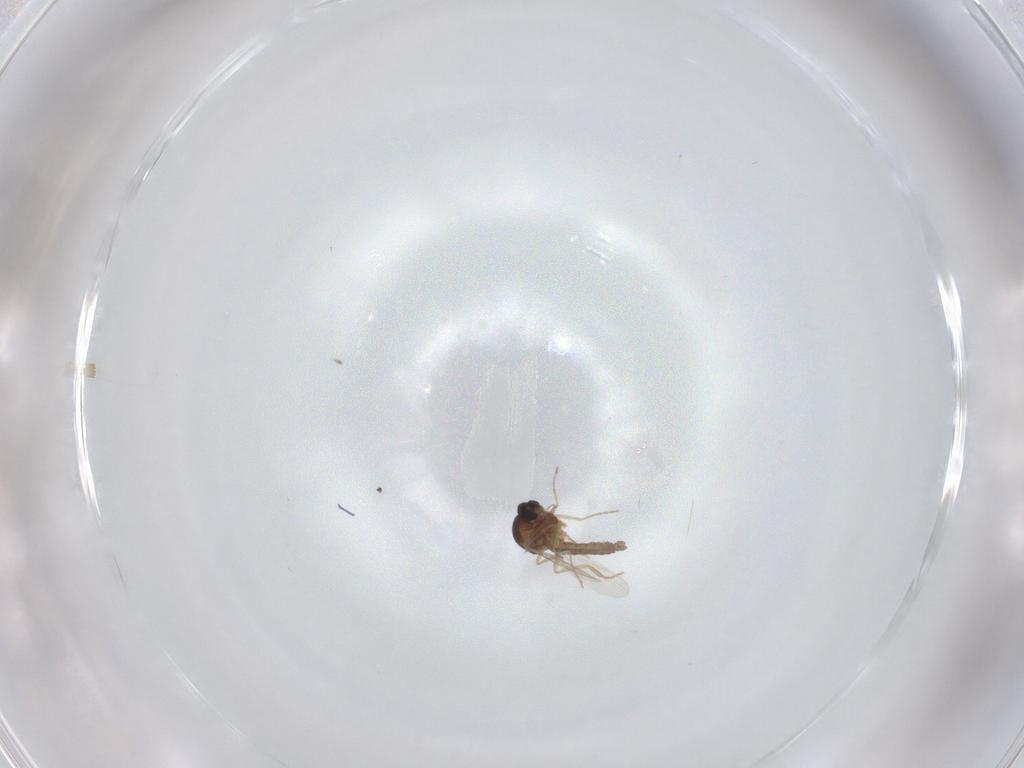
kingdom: Animalia
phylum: Arthropoda
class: Insecta
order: Diptera
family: Ceratopogonidae
